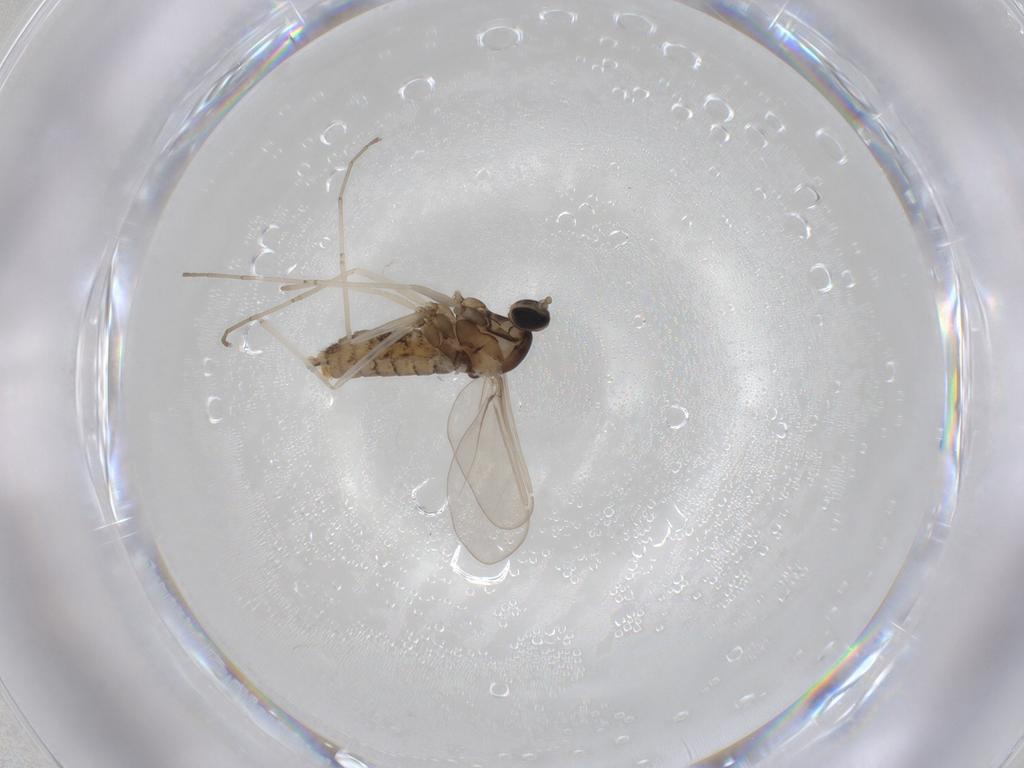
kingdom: Animalia
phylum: Arthropoda
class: Insecta
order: Diptera
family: Chironomidae
